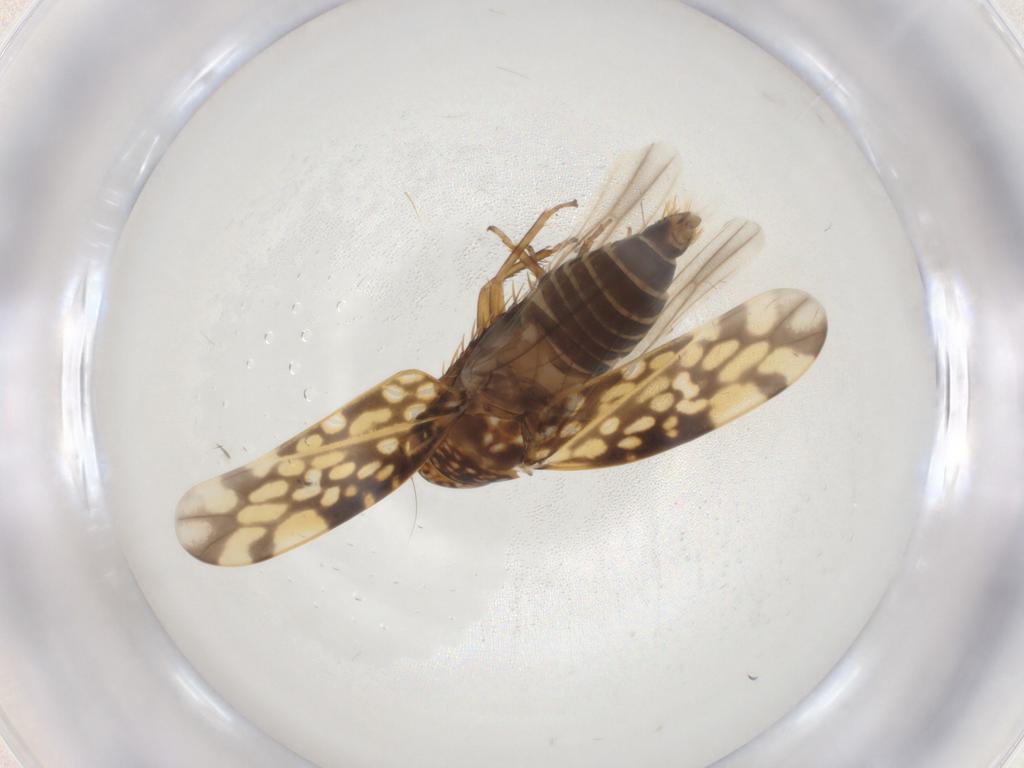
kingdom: Animalia
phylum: Arthropoda
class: Insecta
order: Hemiptera
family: Cicadellidae
